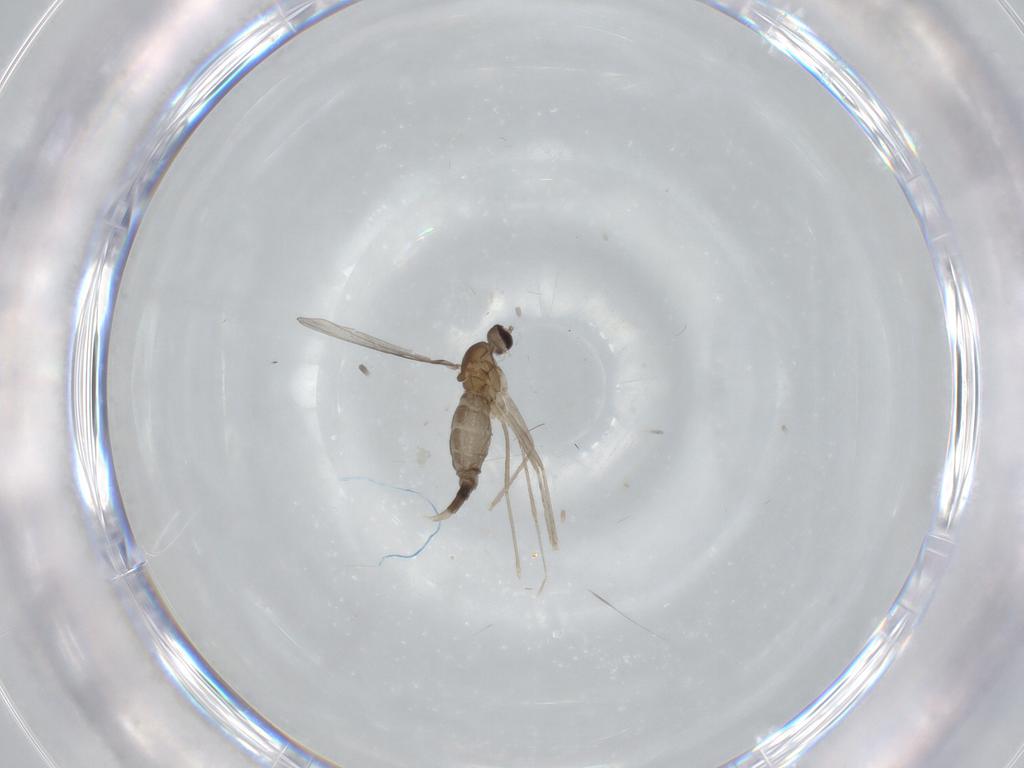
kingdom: Animalia
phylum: Arthropoda
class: Insecta
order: Diptera
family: Cecidomyiidae
